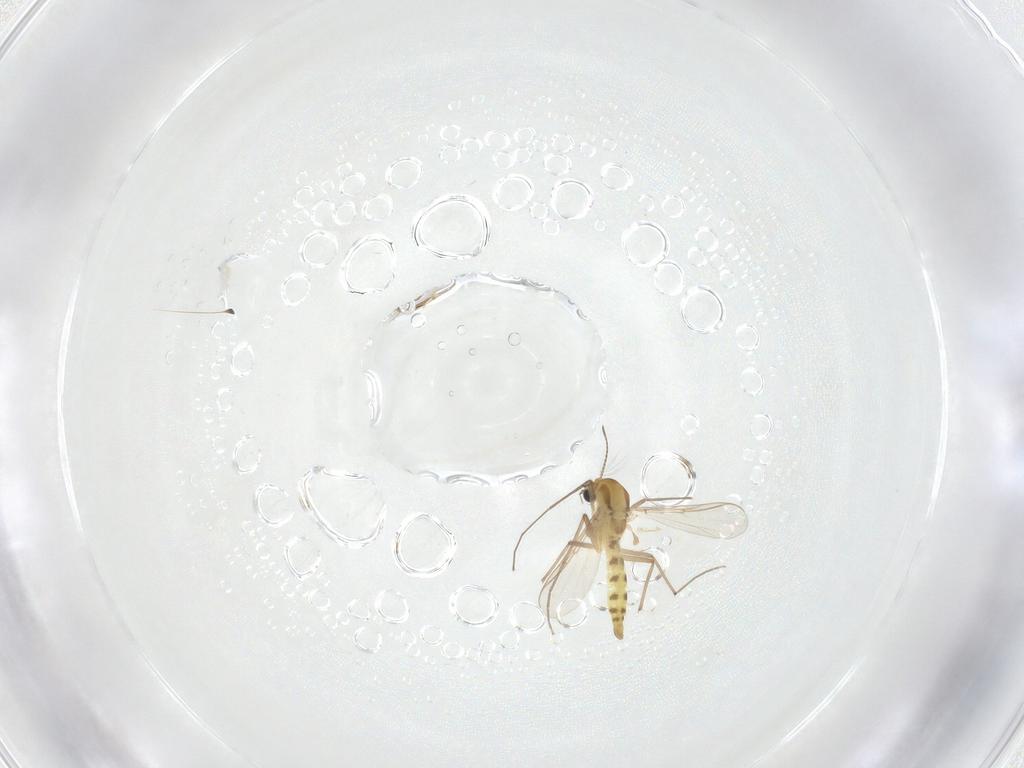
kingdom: Animalia
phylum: Arthropoda
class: Insecta
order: Diptera
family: Chironomidae
